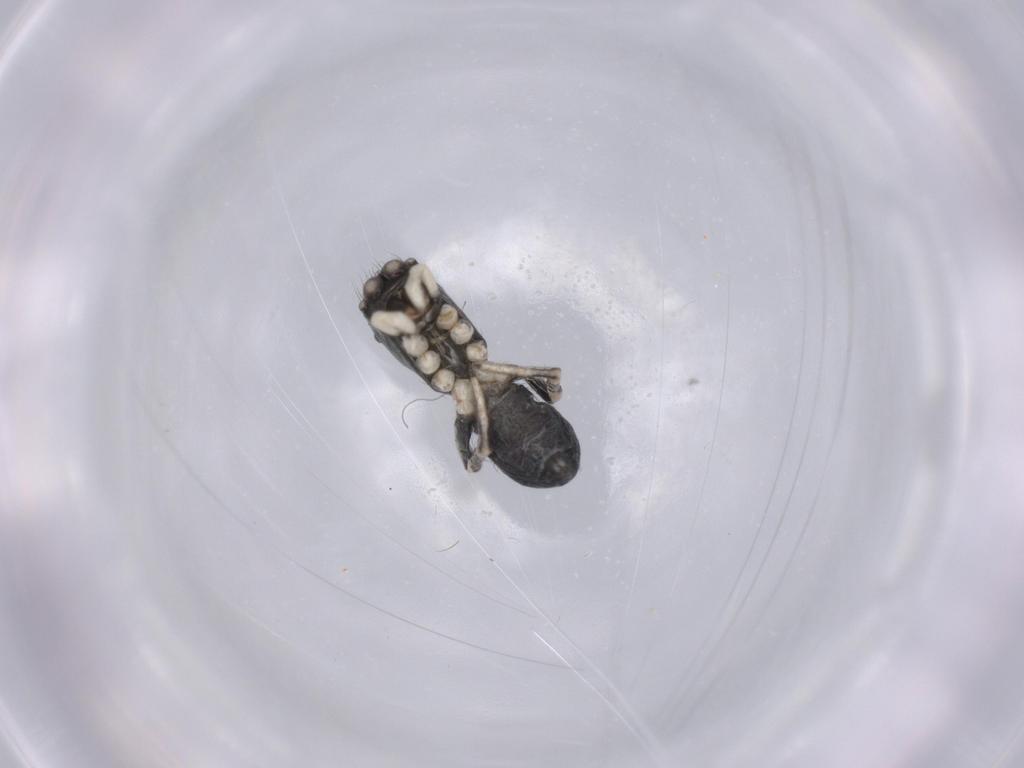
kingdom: Animalia
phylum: Arthropoda
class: Arachnida
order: Araneae
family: Salticidae
